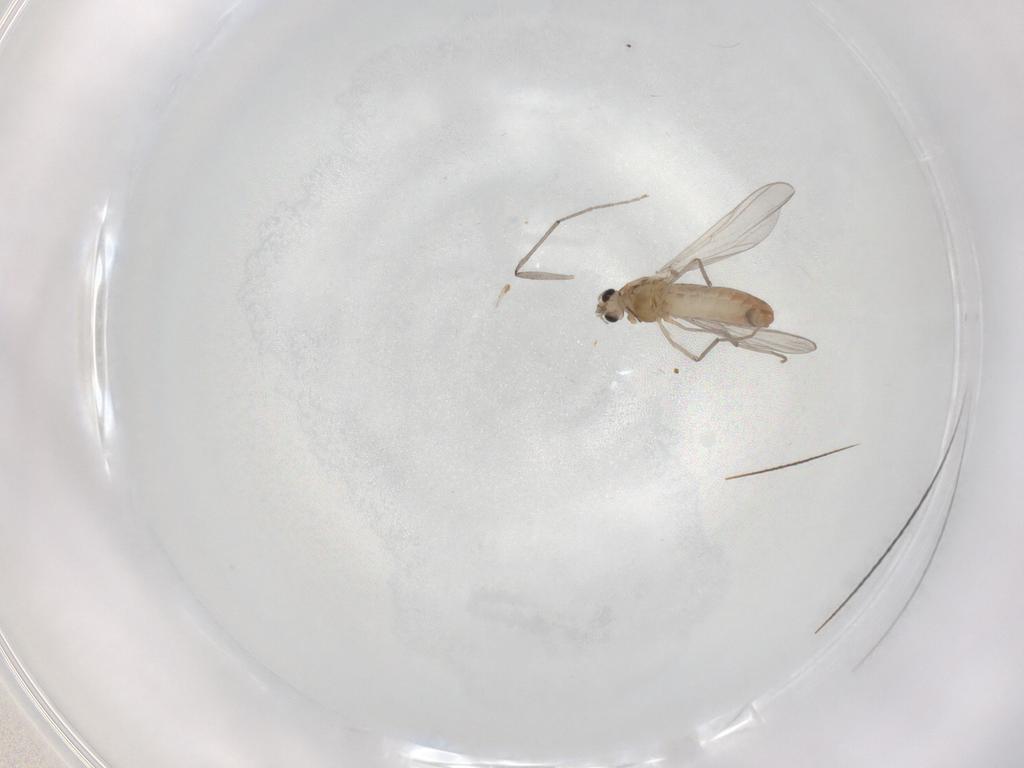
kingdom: Animalia
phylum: Arthropoda
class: Insecta
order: Diptera
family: Chironomidae
